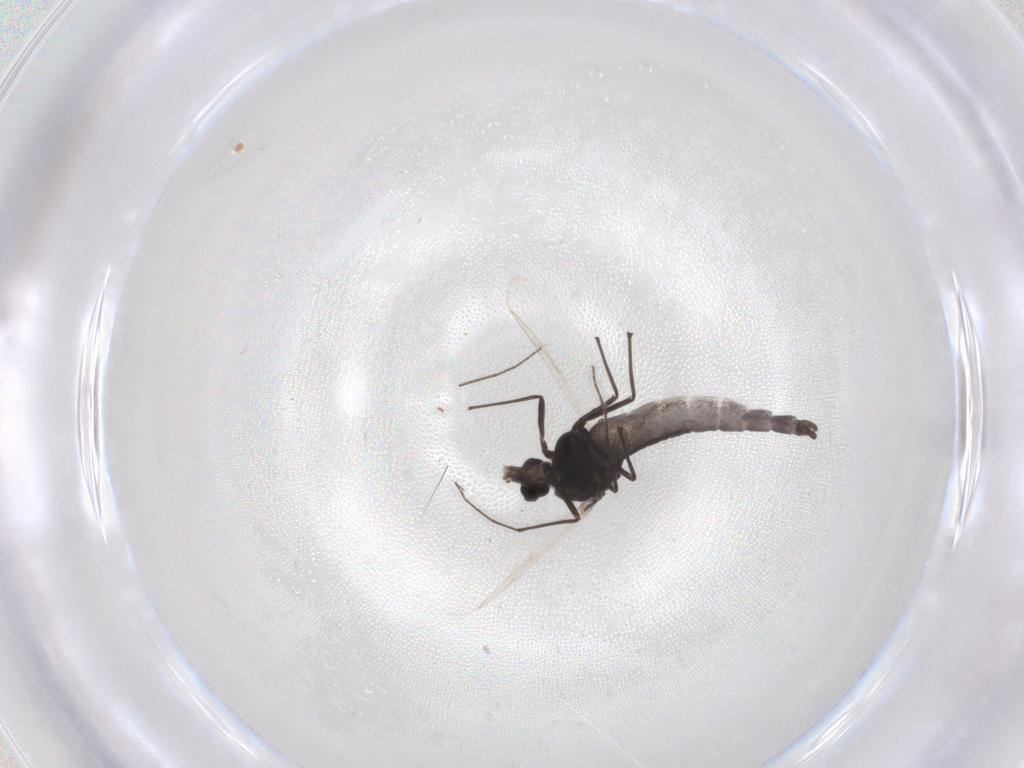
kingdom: Animalia
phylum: Arthropoda
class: Insecta
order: Diptera
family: Chironomidae
